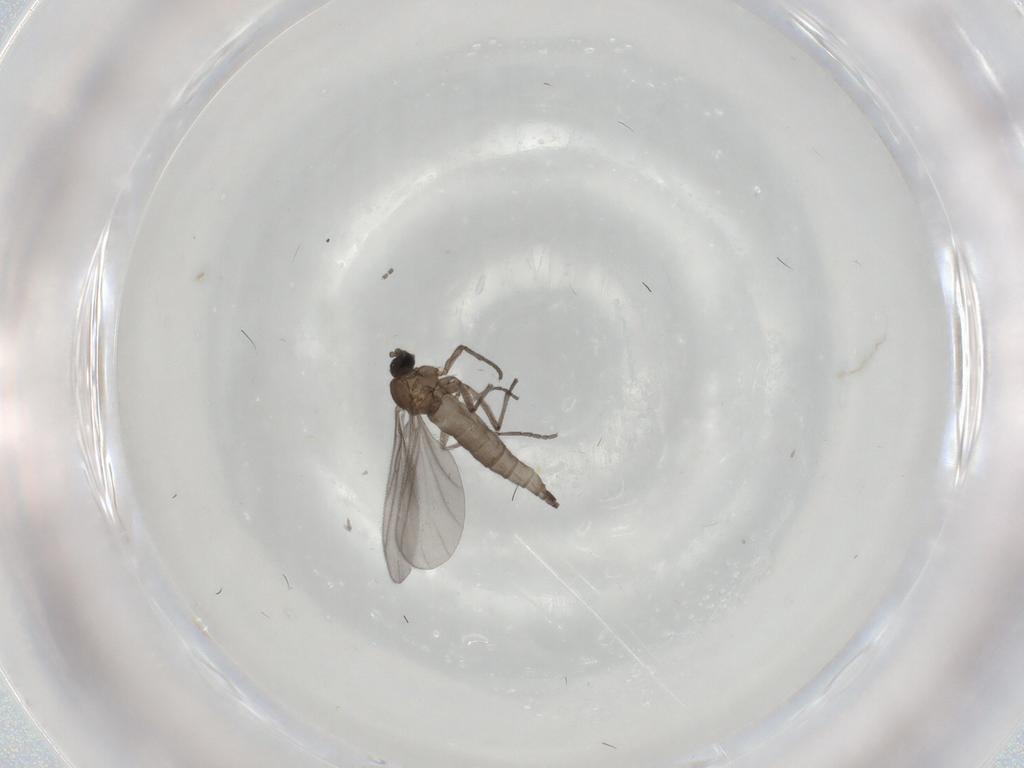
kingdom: Animalia
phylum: Arthropoda
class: Insecta
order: Diptera
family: Sciaridae
